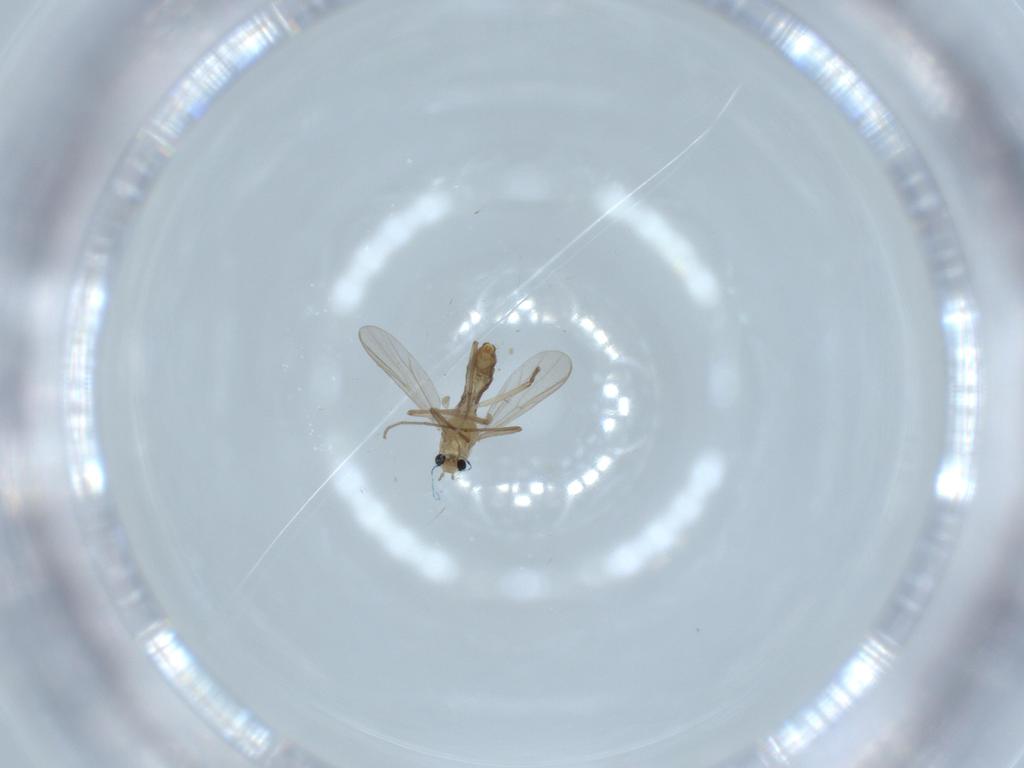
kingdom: Animalia
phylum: Arthropoda
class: Insecta
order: Diptera
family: Chironomidae
